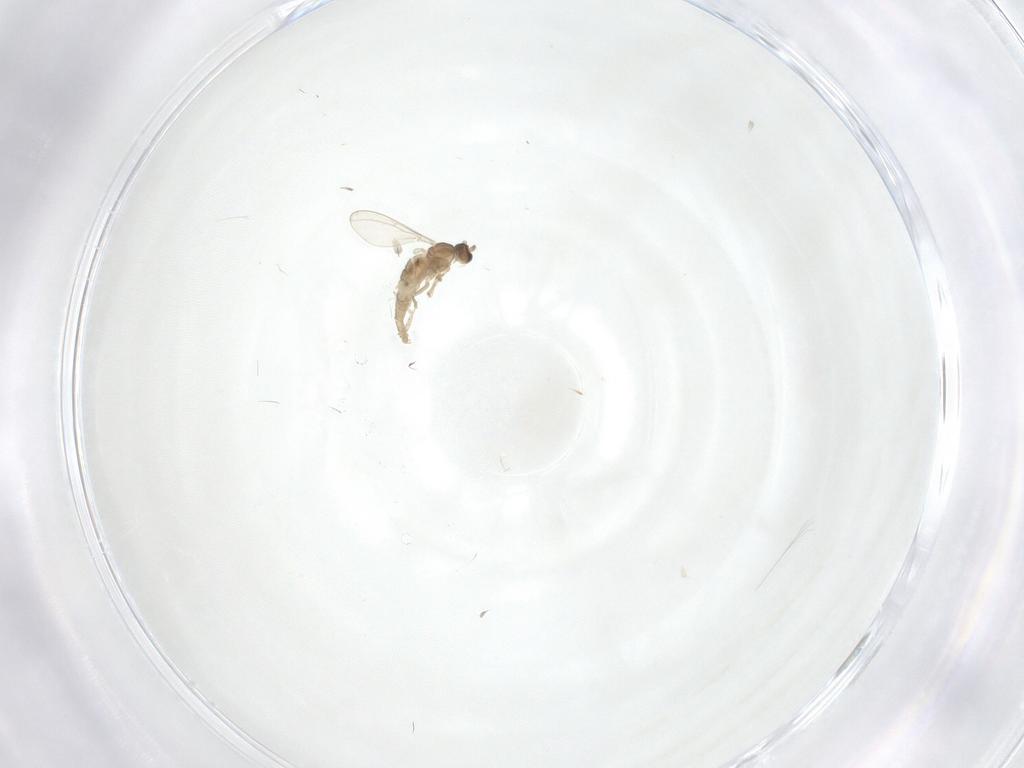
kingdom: Animalia
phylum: Arthropoda
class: Insecta
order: Diptera
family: Cecidomyiidae
